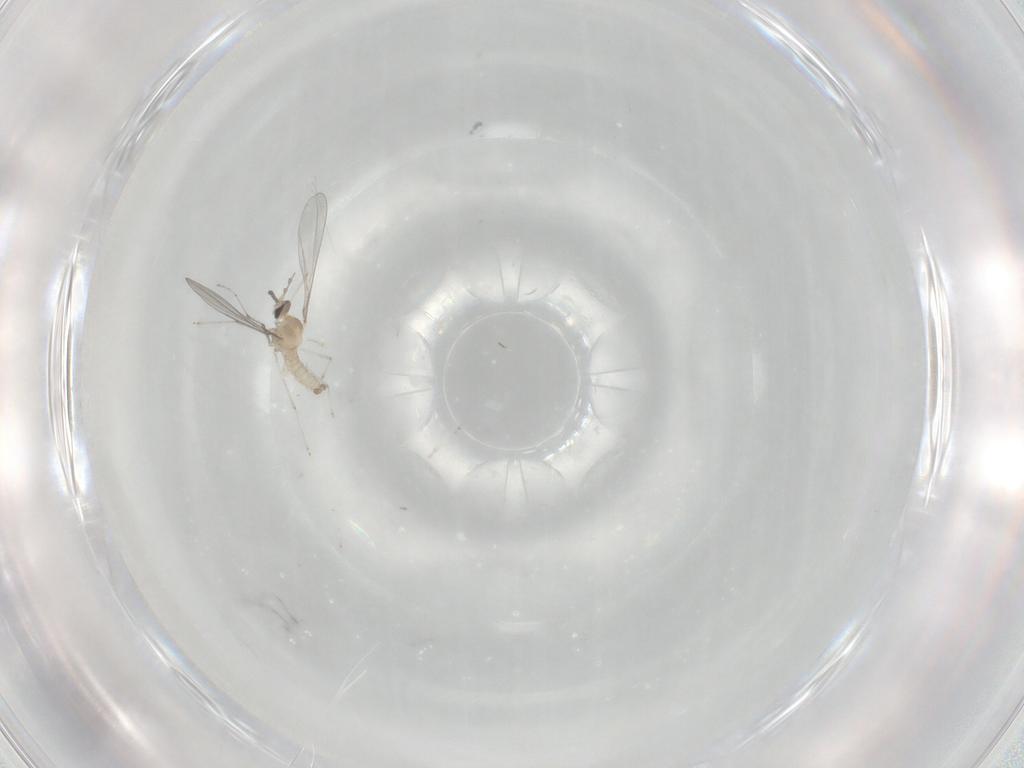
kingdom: Animalia
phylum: Arthropoda
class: Insecta
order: Diptera
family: Cecidomyiidae
